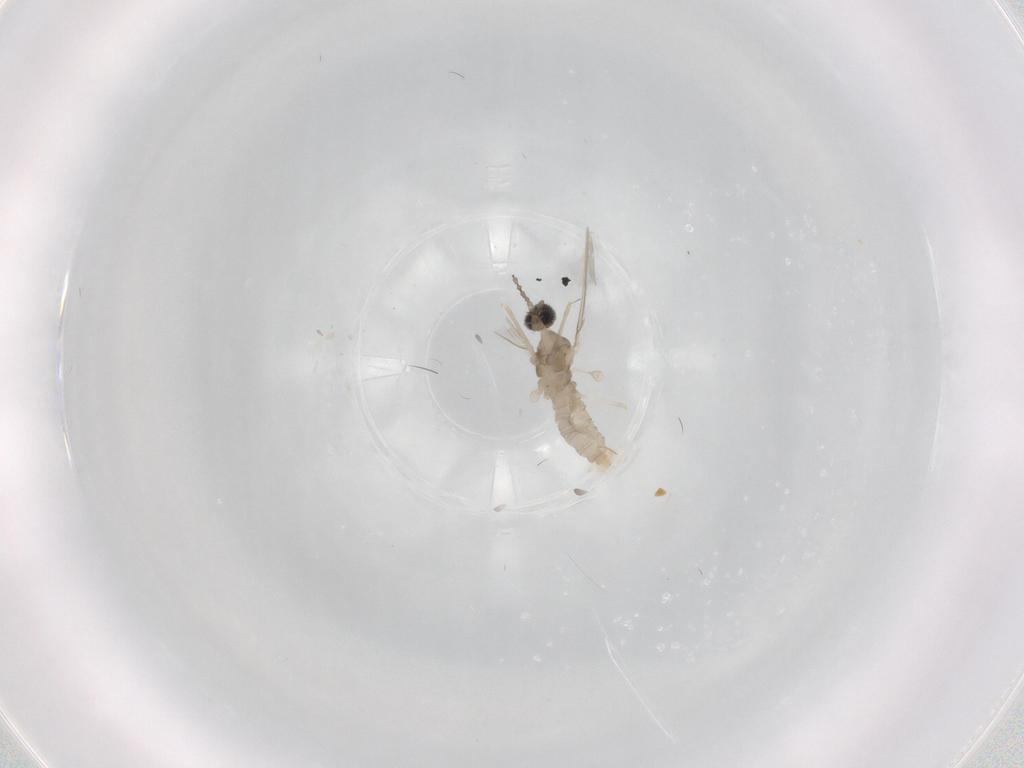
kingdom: Animalia
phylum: Arthropoda
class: Insecta
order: Diptera
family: Cecidomyiidae
